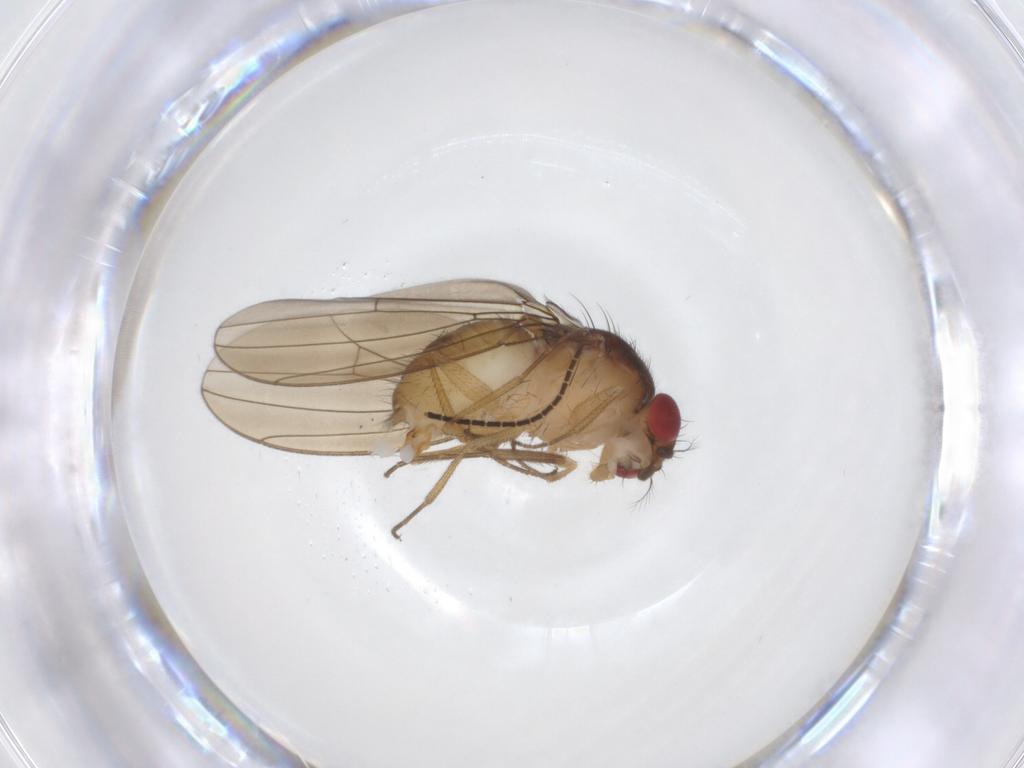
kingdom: Animalia
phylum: Arthropoda
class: Insecta
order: Diptera
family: Drosophilidae
